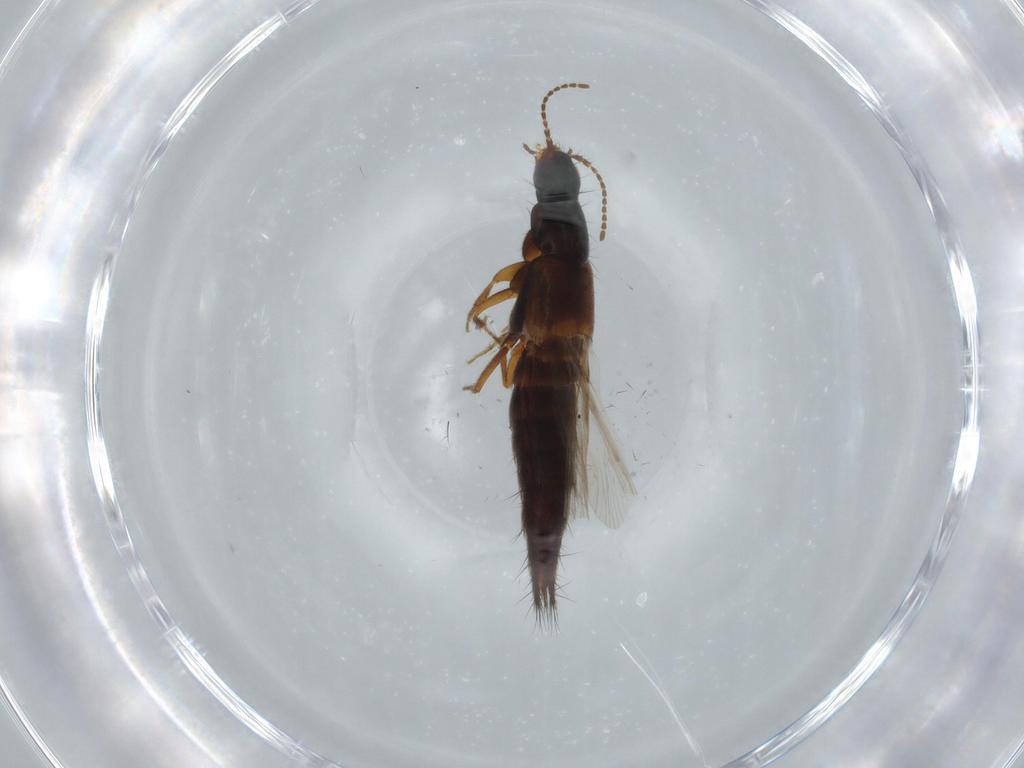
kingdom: Animalia
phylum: Arthropoda
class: Insecta
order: Coleoptera
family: Staphylinidae
